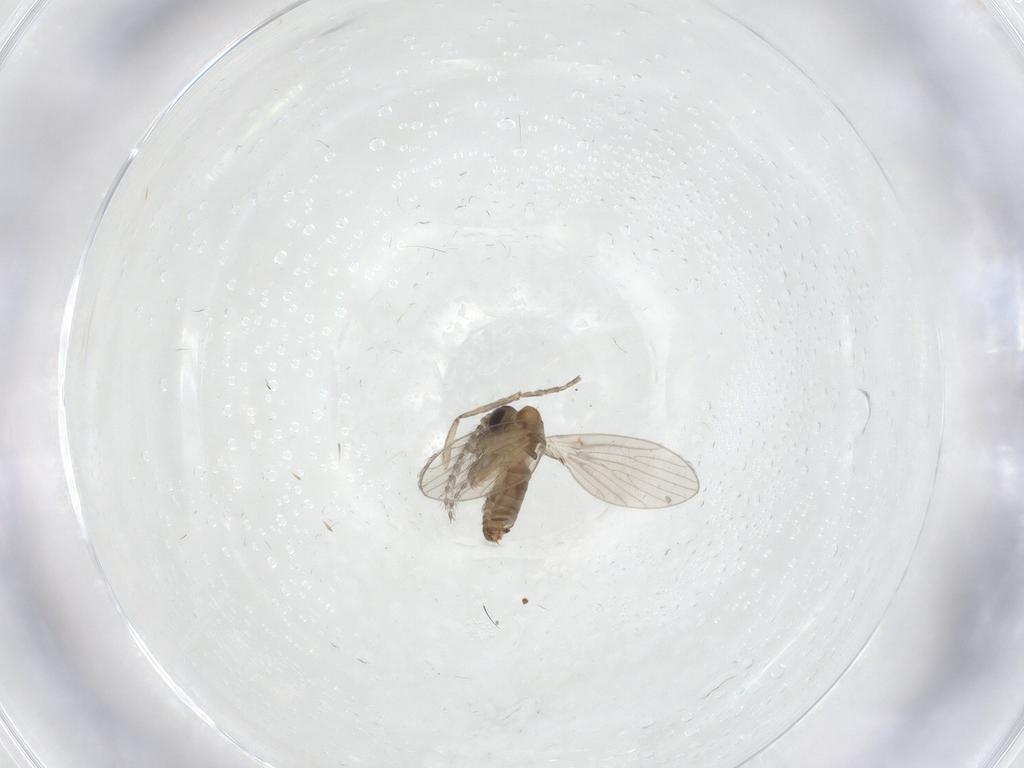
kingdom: Animalia
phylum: Arthropoda
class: Insecta
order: Diptera
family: Psychodidae
